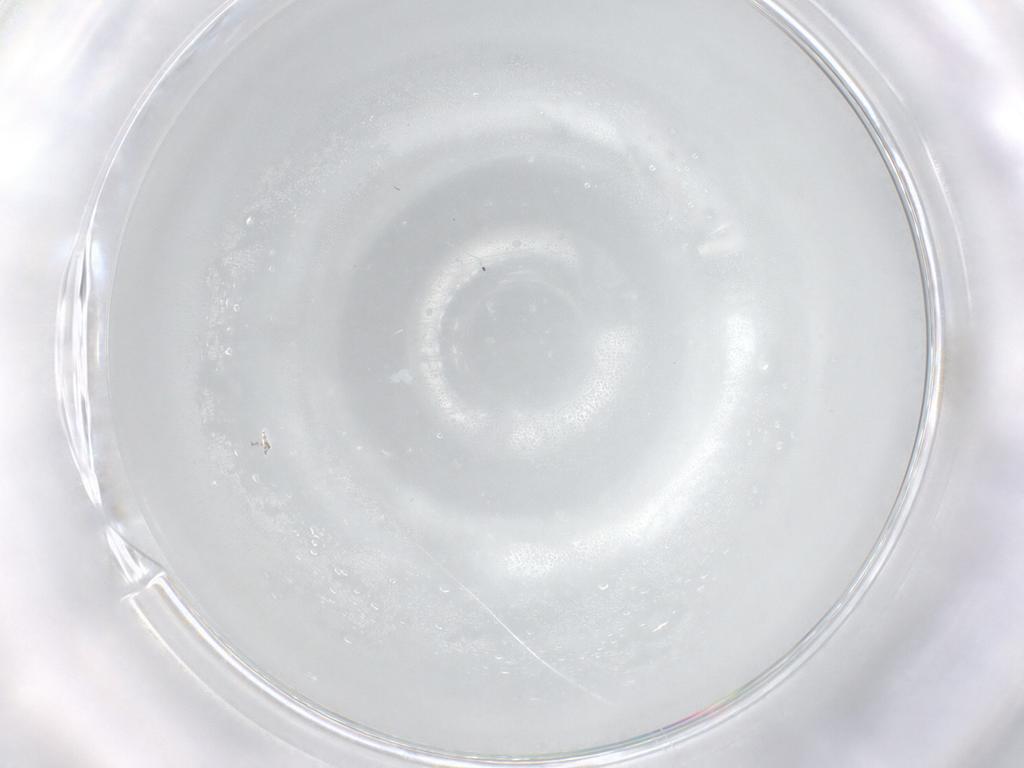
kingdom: Animalia
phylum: Arthropoda
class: Insecta
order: Diptera
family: Cecidomyiidae
